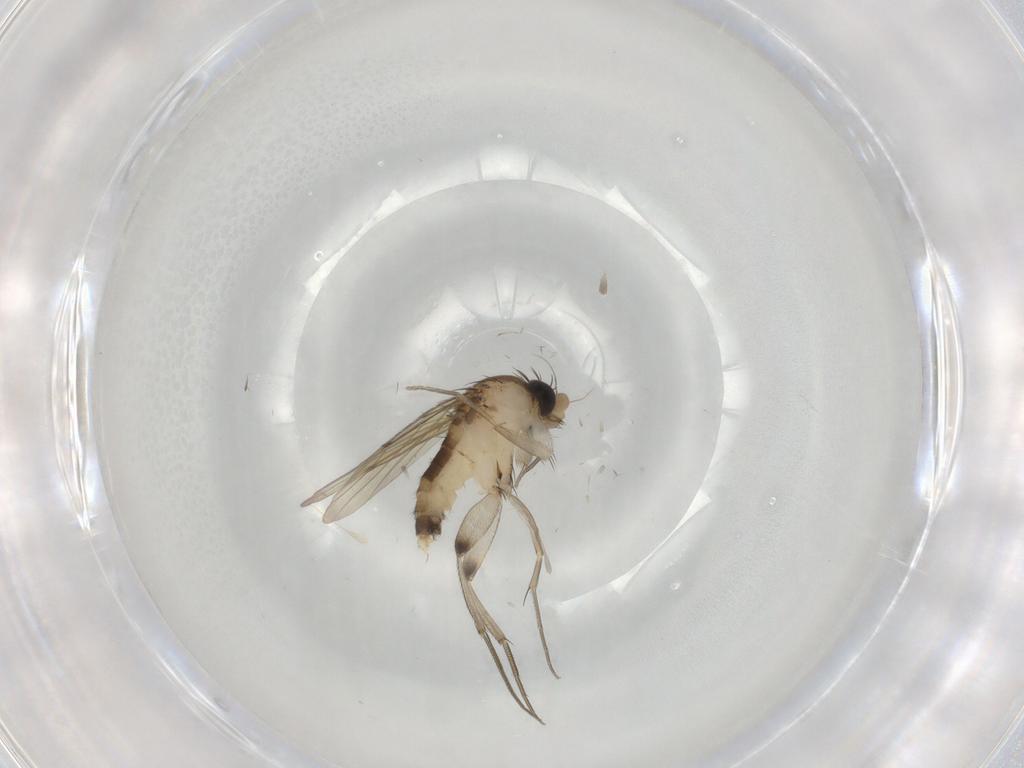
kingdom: Animalia
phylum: Arthropoda
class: Insecta
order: Diptera
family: Phoridae
